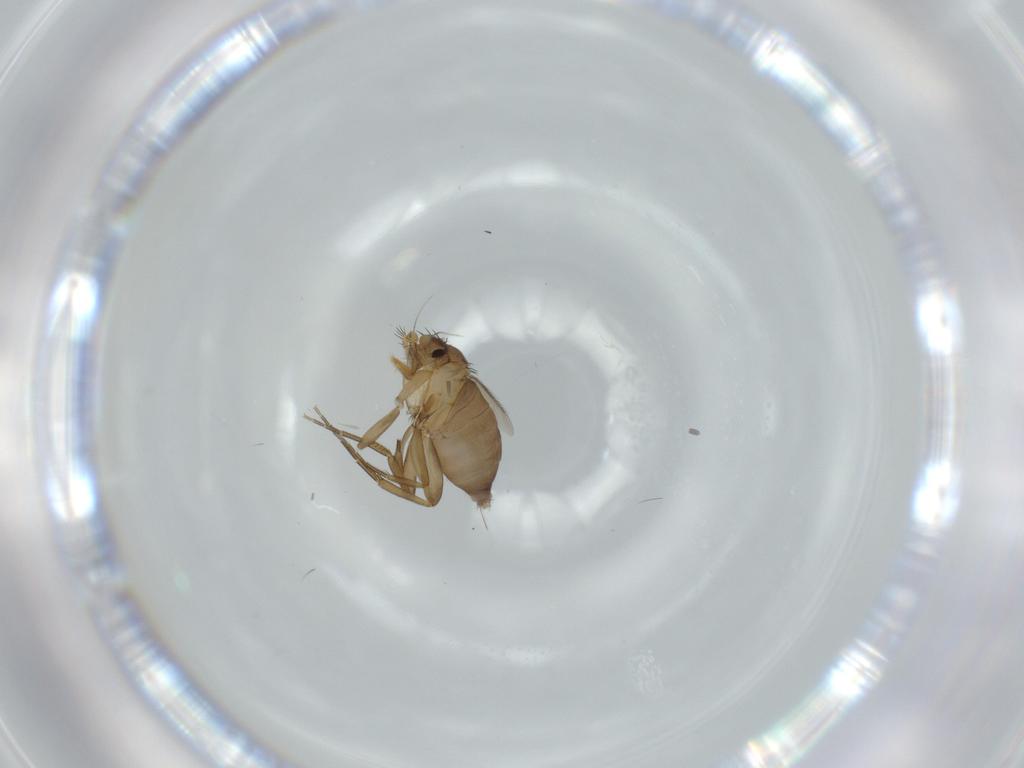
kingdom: Animalia
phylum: Arthropoda
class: Insecta
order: Diptera
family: Phoridae
